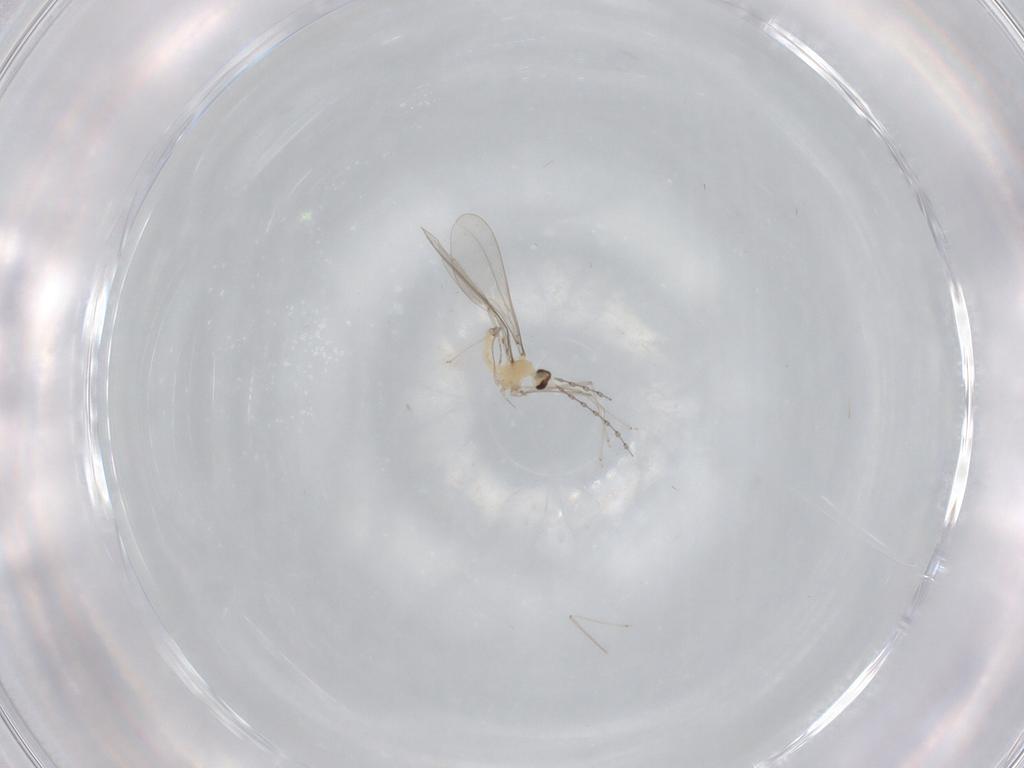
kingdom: Animalia
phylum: Arthropoda
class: Insecta
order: Diptera
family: Cecidomyiidae
